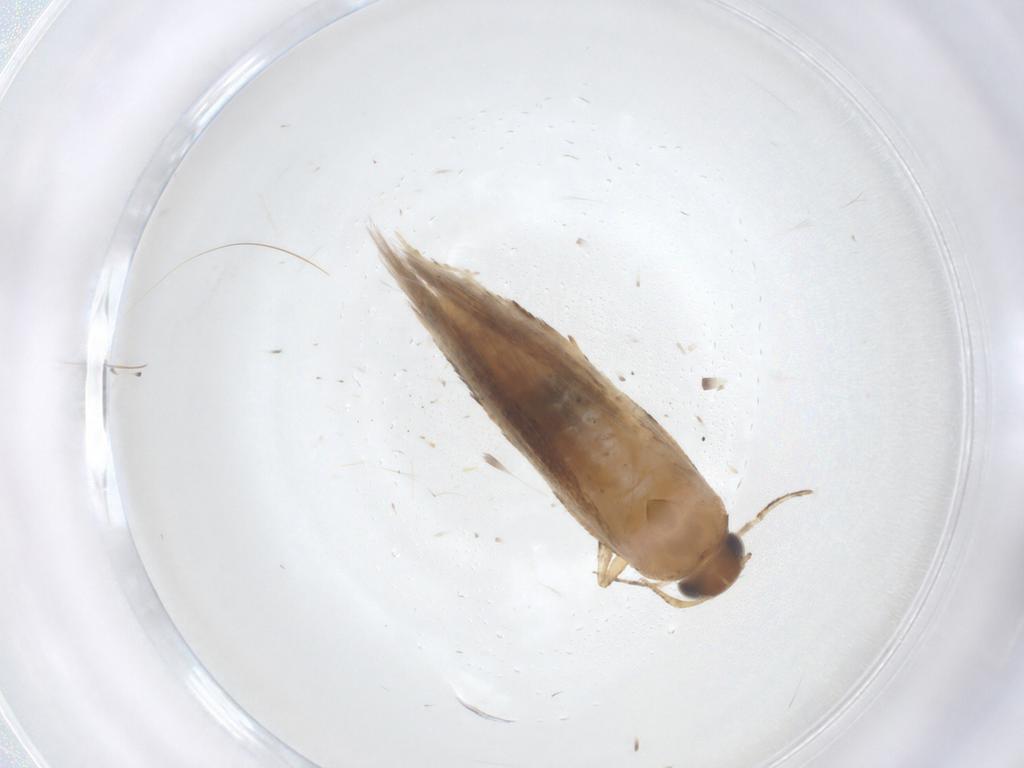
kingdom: Animalia
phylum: Arthropoda
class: Insecta
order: Lepidoptera
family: Gelechiidae
